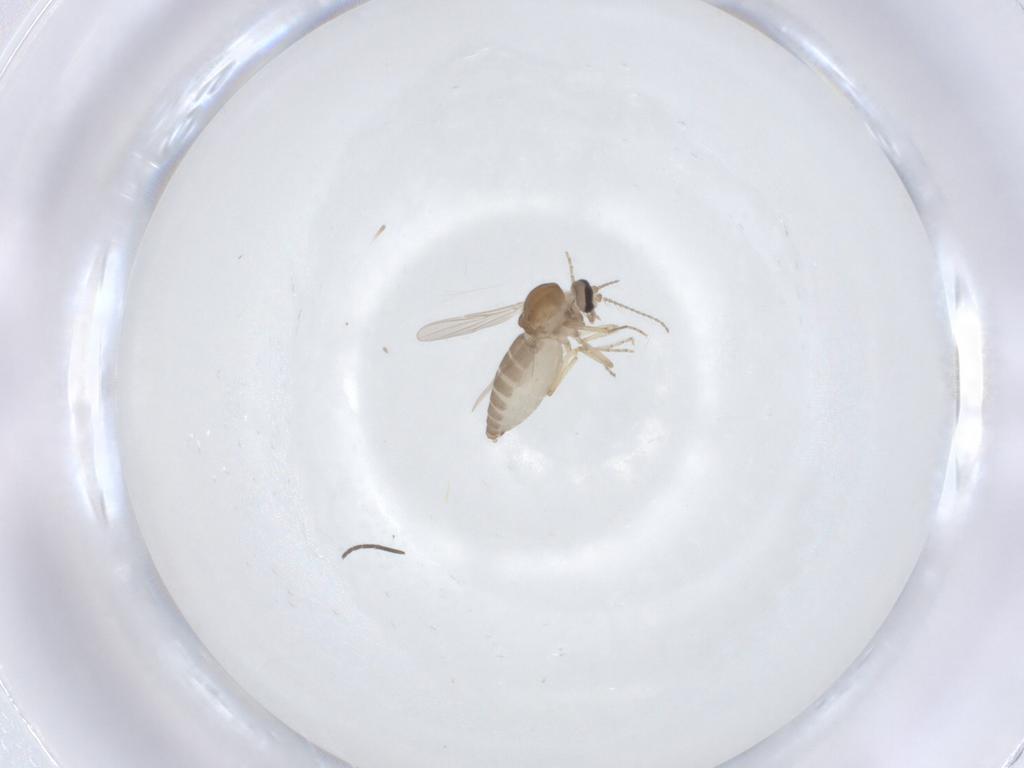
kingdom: Animalia
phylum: Arthropoda
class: Insecta
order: Diptera
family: Ceratopogonidae
